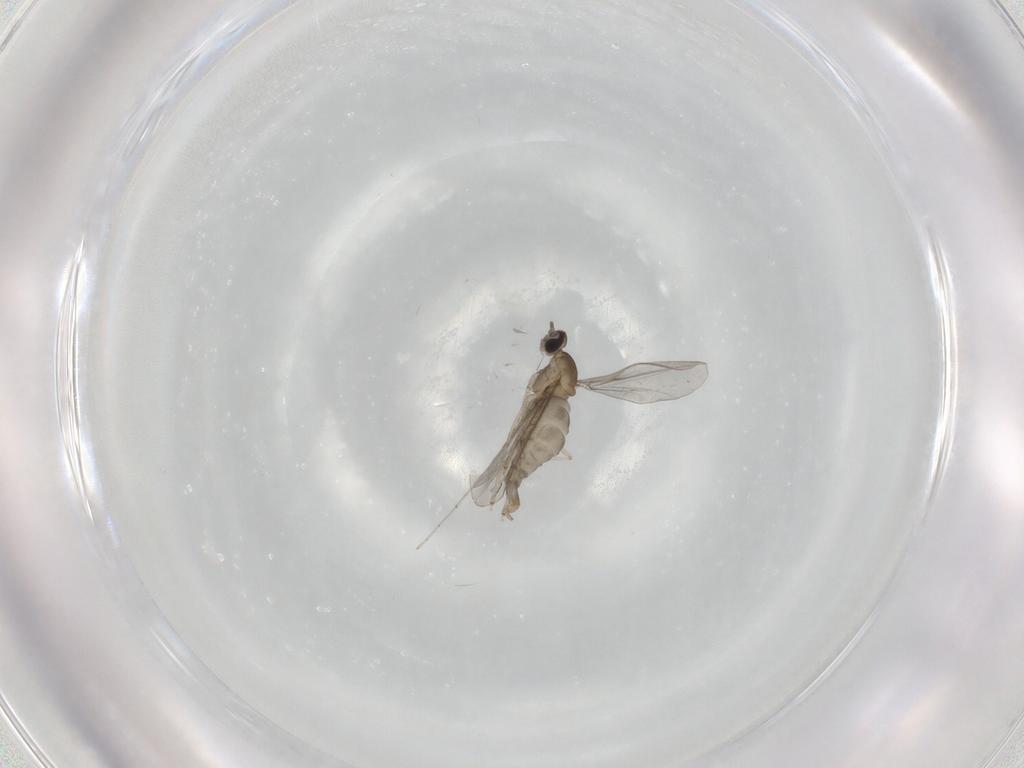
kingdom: Animalia
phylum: Arthropoda
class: Insecta
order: Diptera
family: Cecidomyiidae
